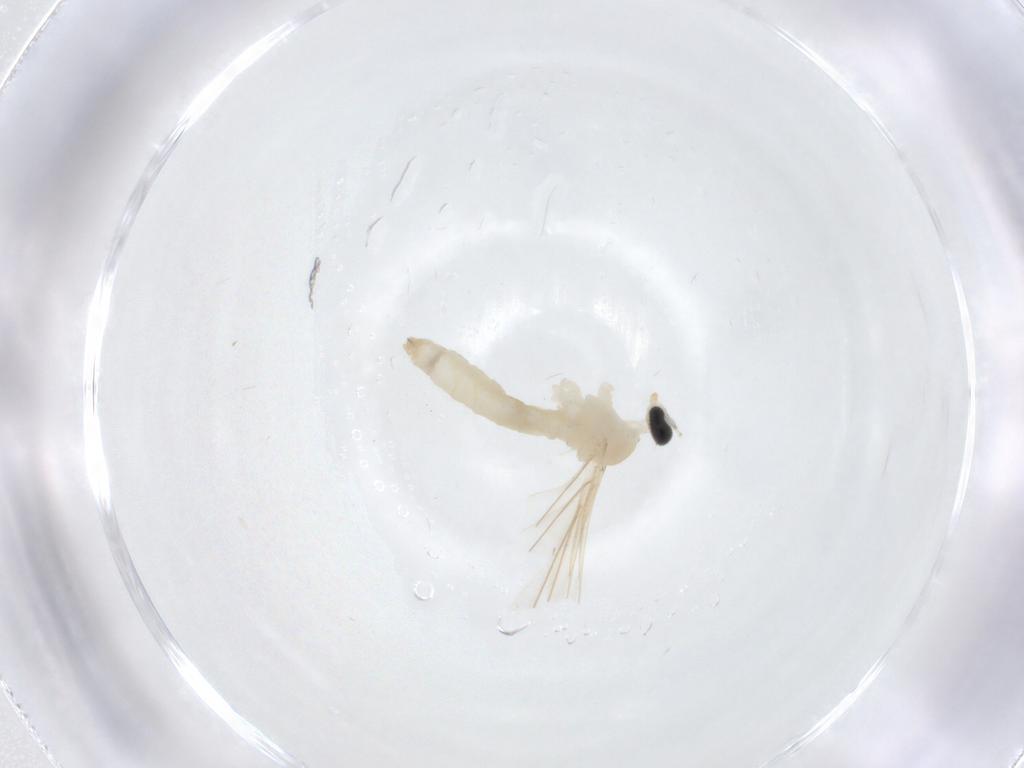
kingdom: Animalia
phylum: Arthropoda
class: Insecta
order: Diptera
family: Cecidomyiidae
